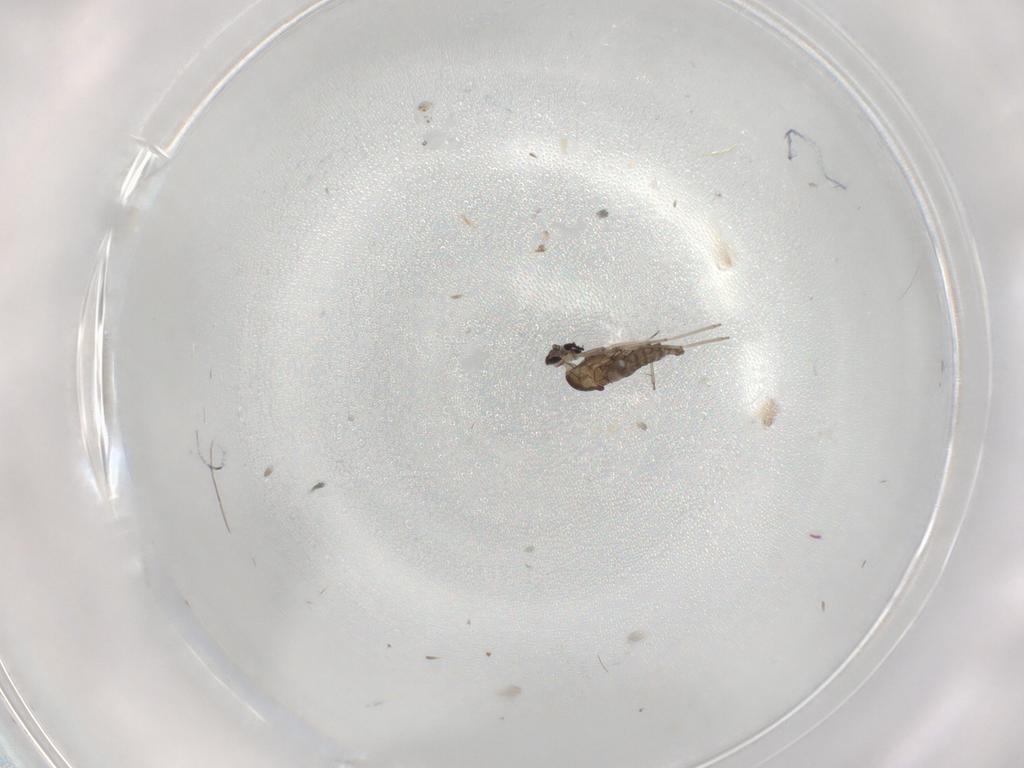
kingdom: Animalia
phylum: Arthropoda
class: Insecta
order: Diptera
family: Cecidomyiidae
